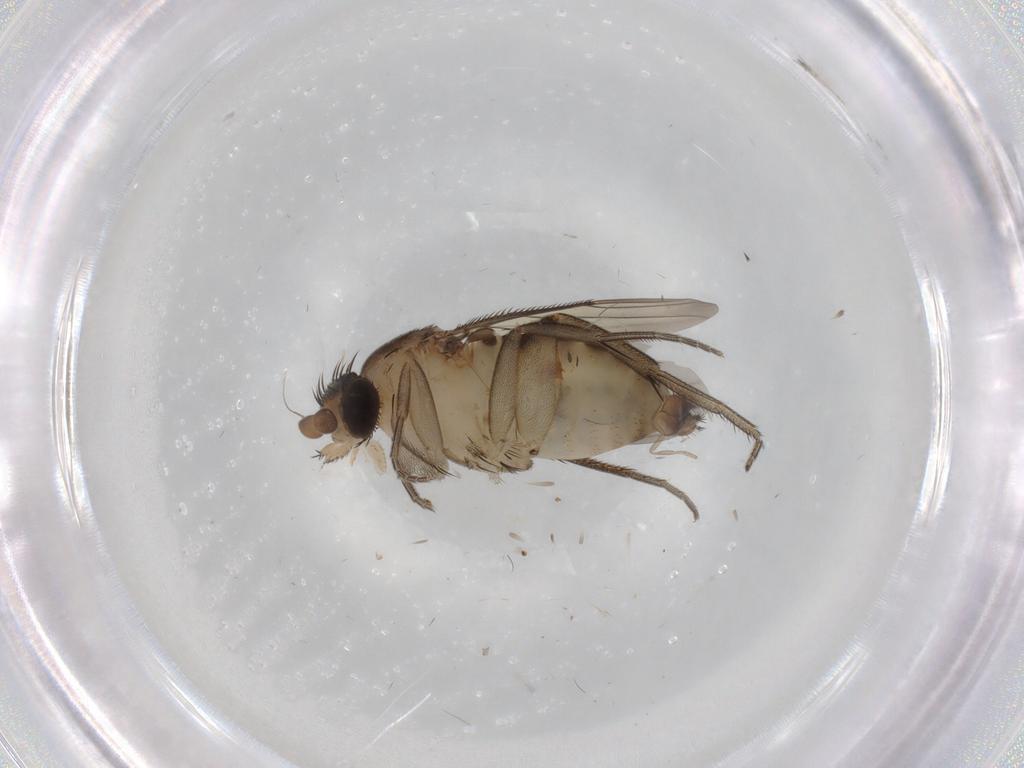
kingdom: Animalia
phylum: Arthropoda
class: Insecta
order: Diptera
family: Phoridae
